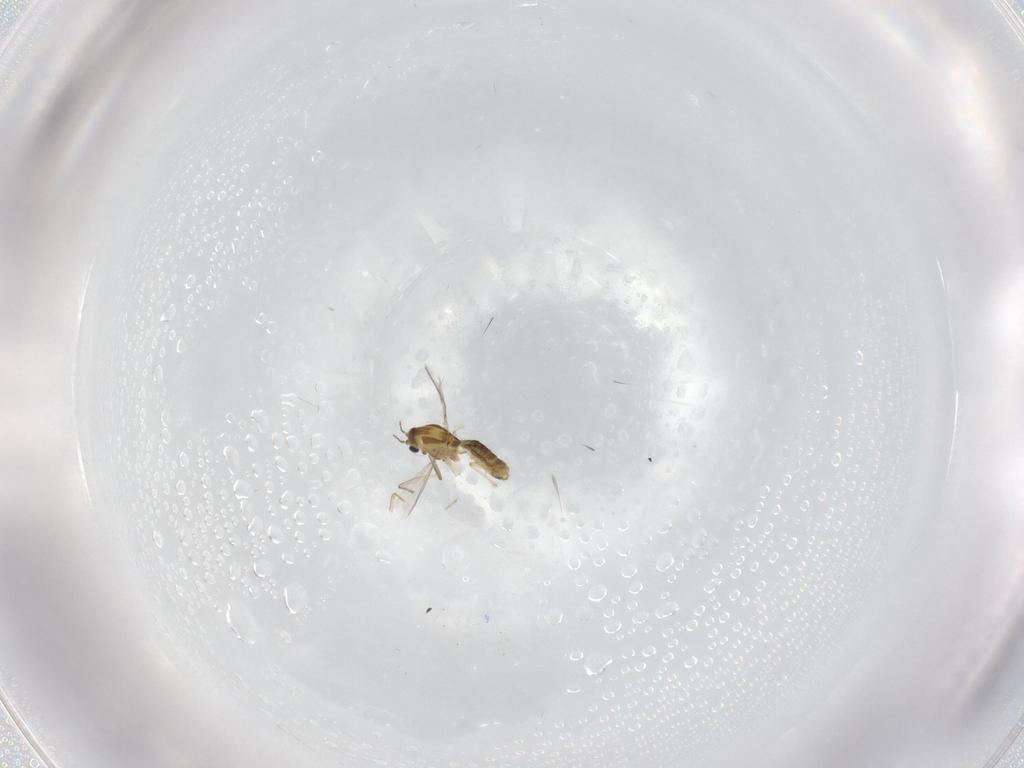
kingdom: Animalia
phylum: Arthropoda
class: Insecta
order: Diptera
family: Chironomidae
